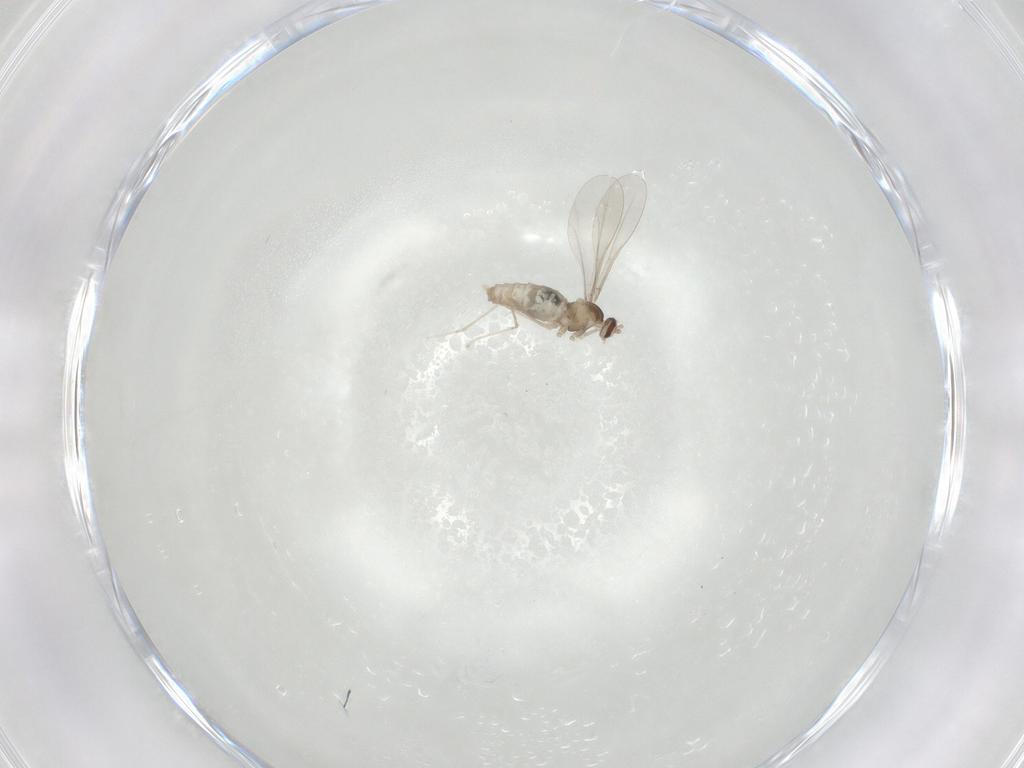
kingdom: Animalia
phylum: Arthropoda
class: Insecta
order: Diptera
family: Cecidomyiidae
